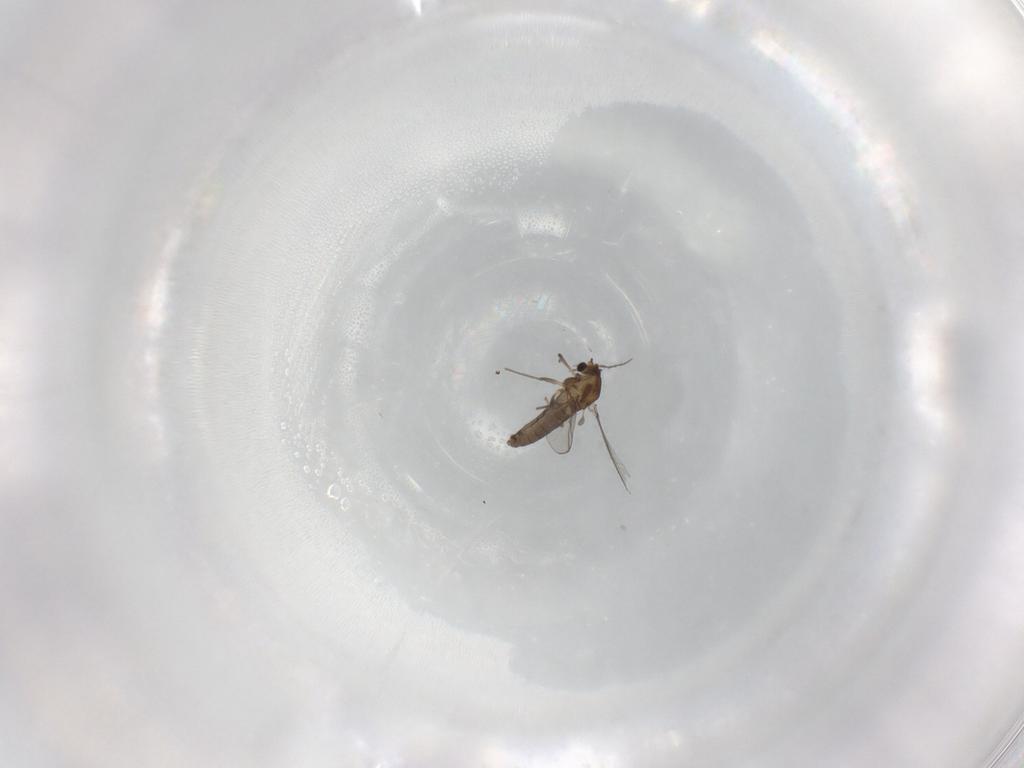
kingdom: Animalia
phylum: Arthropoda
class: Insecta
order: Diptera
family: Chironomidae
